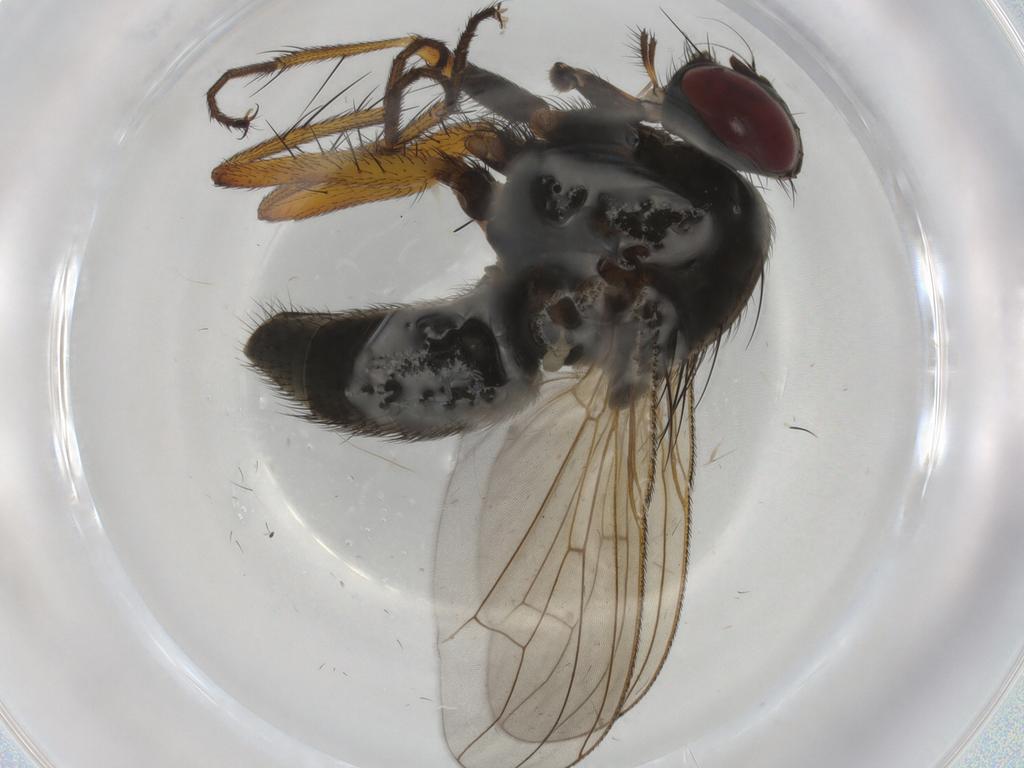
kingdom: Animalia
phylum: Arthropoda
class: Insecta
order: Diptera
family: Muscidae
